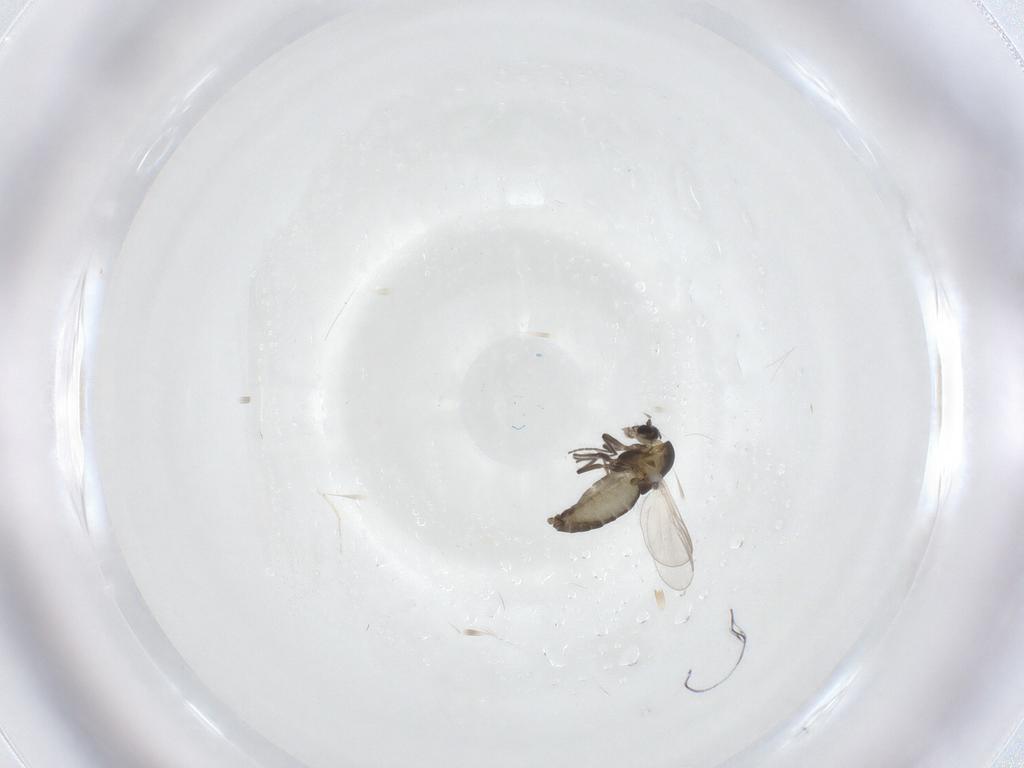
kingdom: Animalia
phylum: Arthropoda
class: Insecta
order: Diptera
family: Chironomidae
